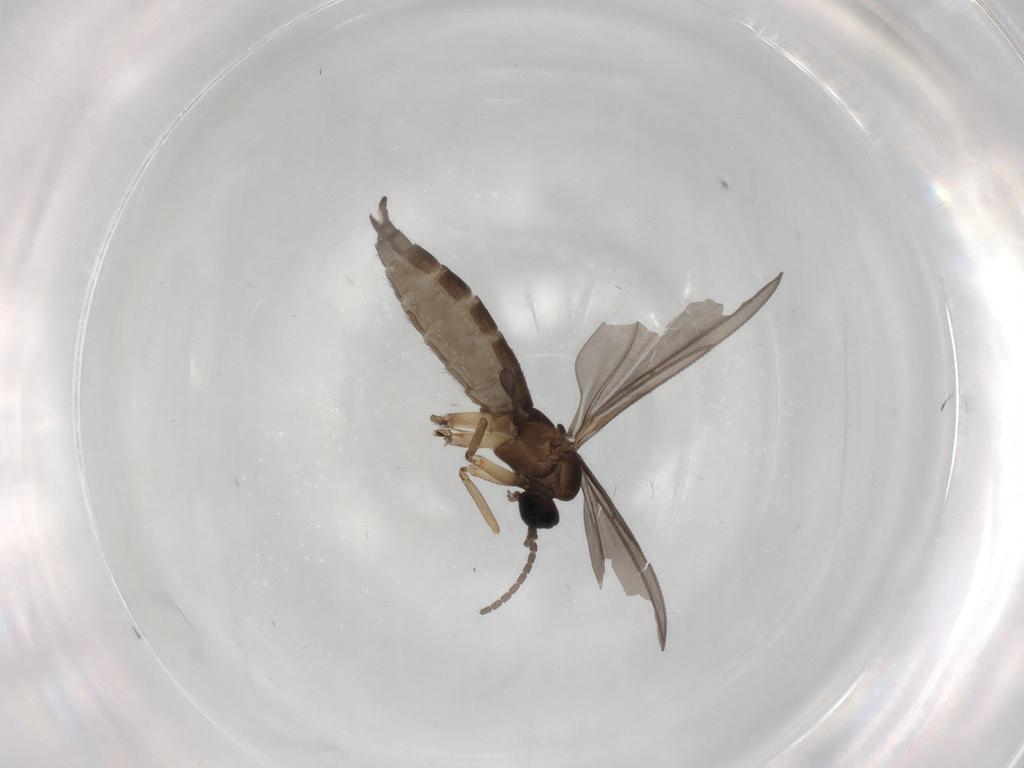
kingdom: Animalia
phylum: Arthropoda
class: Insecta
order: Diptera
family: Sciaridae
